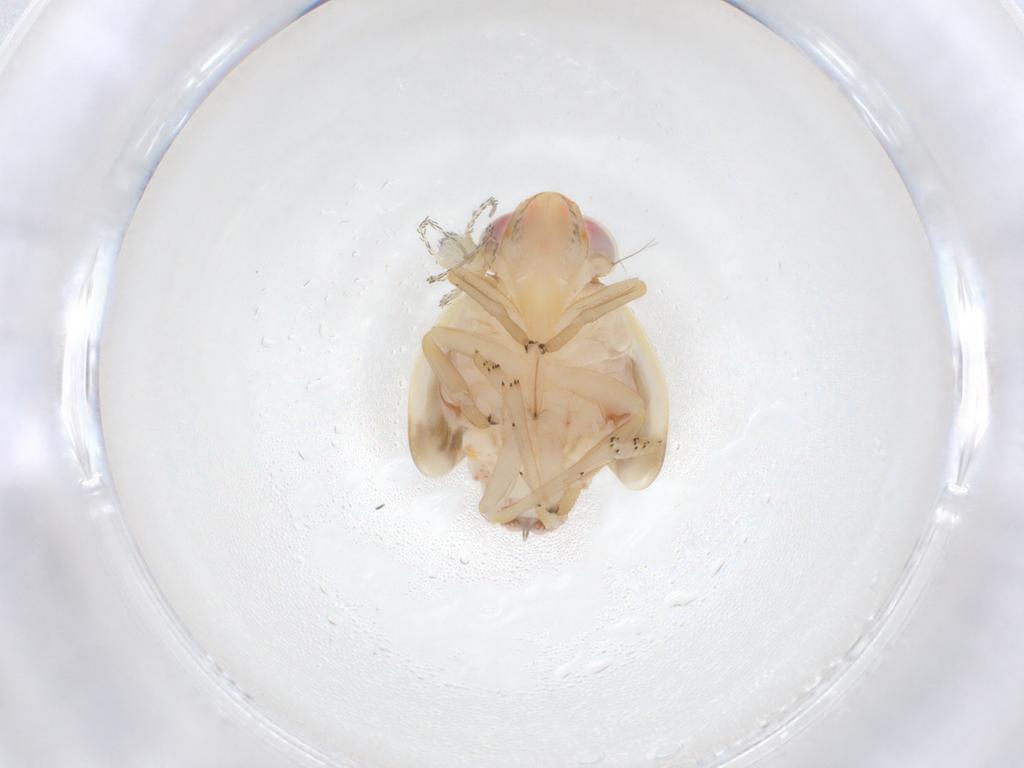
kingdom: Animalia
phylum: Arthropoda
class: Insecta
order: Hemiptera
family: Nogodinidae
